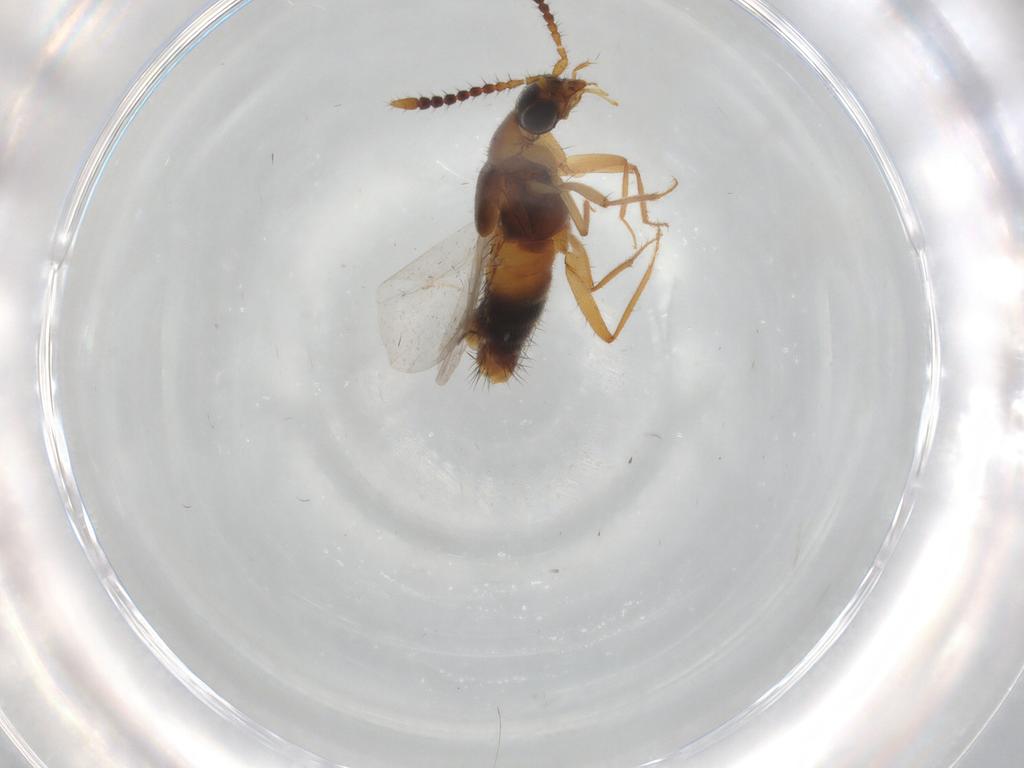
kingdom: Animalia
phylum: Arthropoda
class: Insecta
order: Coleoptera
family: Staphylinidae
